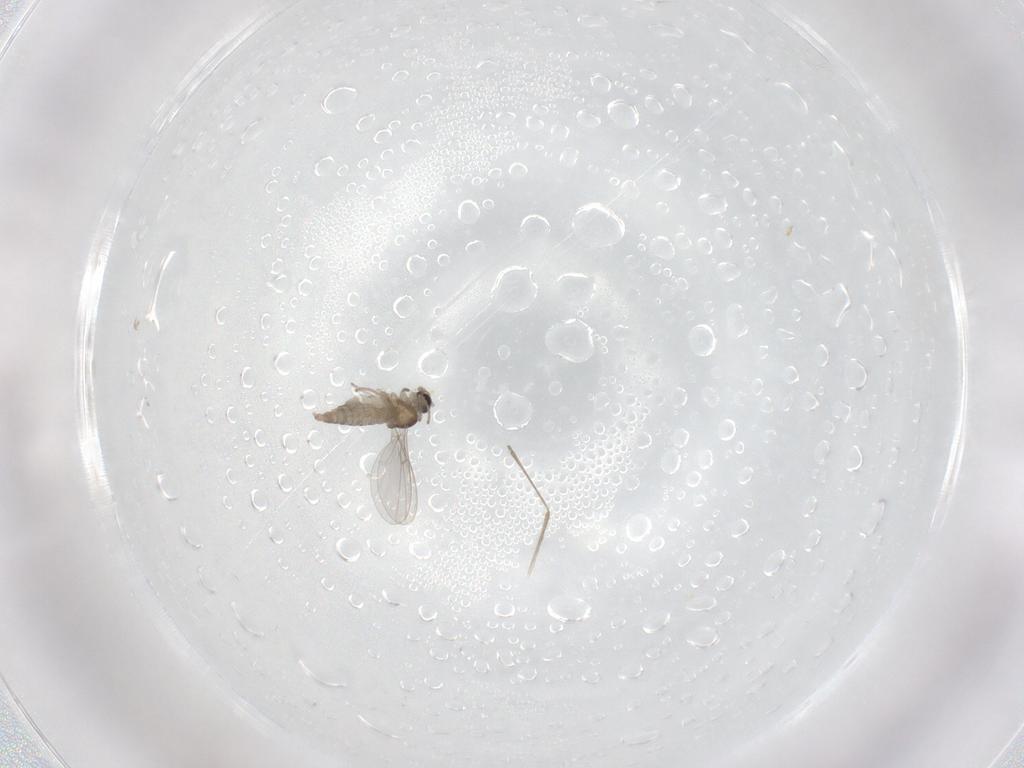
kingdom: Animalia
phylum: Arthropoda
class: Insecta
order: Diptera
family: Cecidomyiidae
